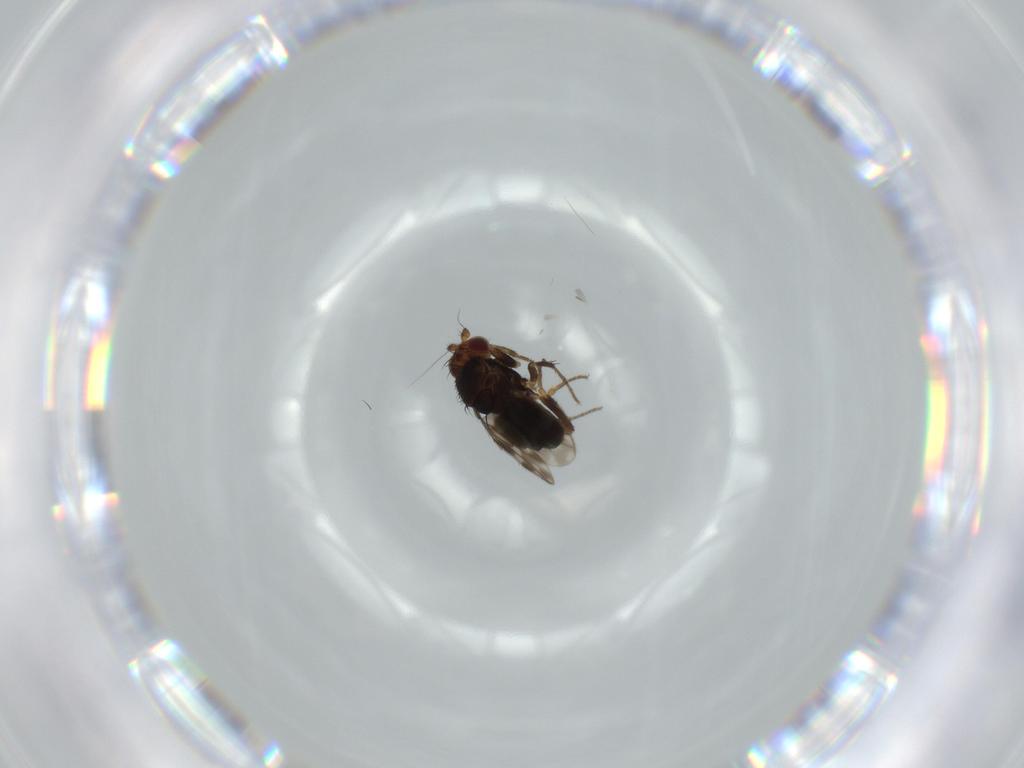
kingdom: Animalia
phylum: Arthropoda
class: Insecta
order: Diptera
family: Sphaeroceridae
